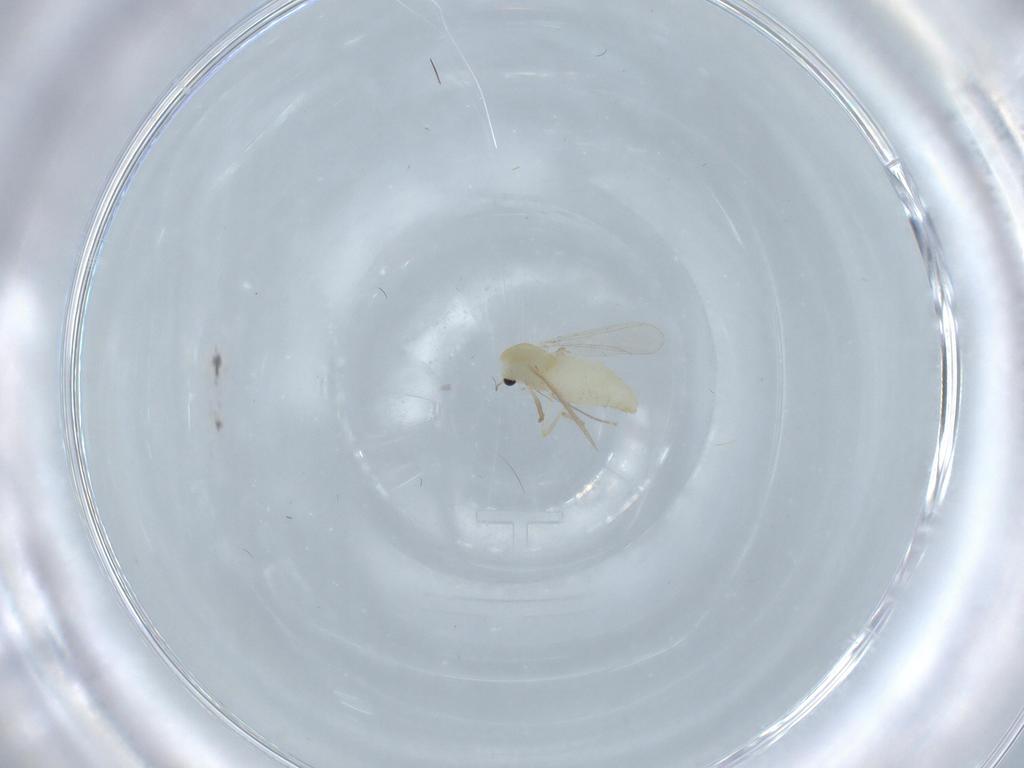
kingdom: Animalia
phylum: Arthropoda
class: Insecta
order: Diptera
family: Chironomidae
